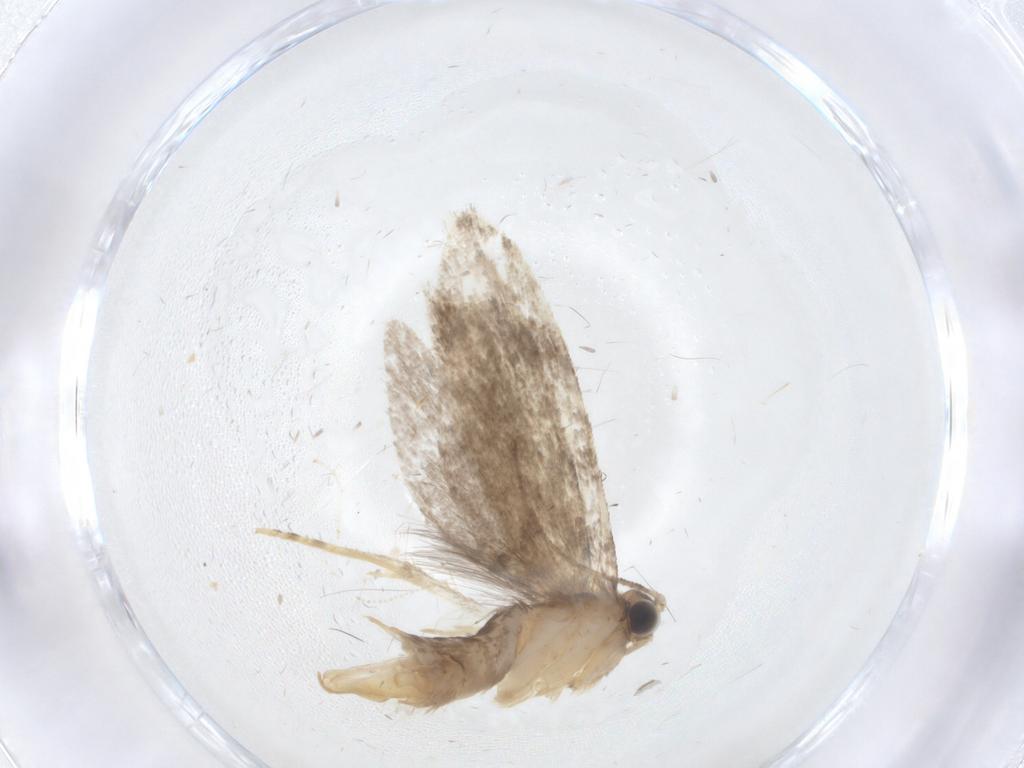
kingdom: Animalia
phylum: Arthropoda
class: Insecta
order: Lepidoptera
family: Tineidae
